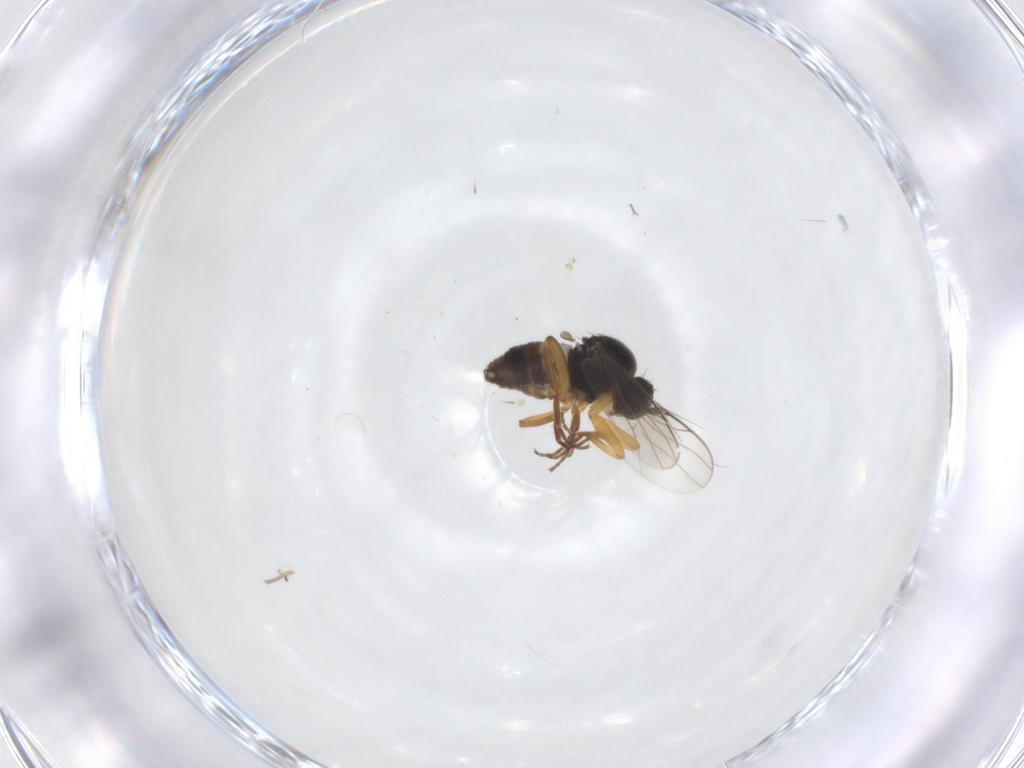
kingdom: Animalia
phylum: Arthropoda
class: Insecta
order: Diptera
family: Hybotidae
